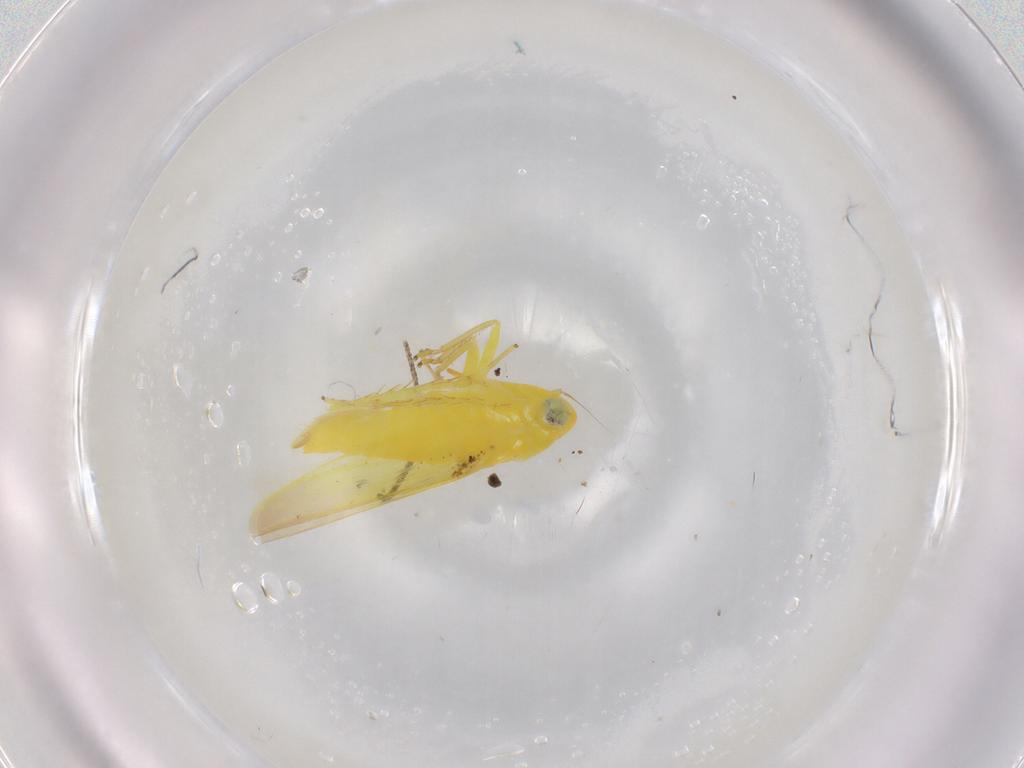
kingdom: Animalia
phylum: Arthropoda
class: Insecta
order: Hemiptera
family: Cicadellidae
